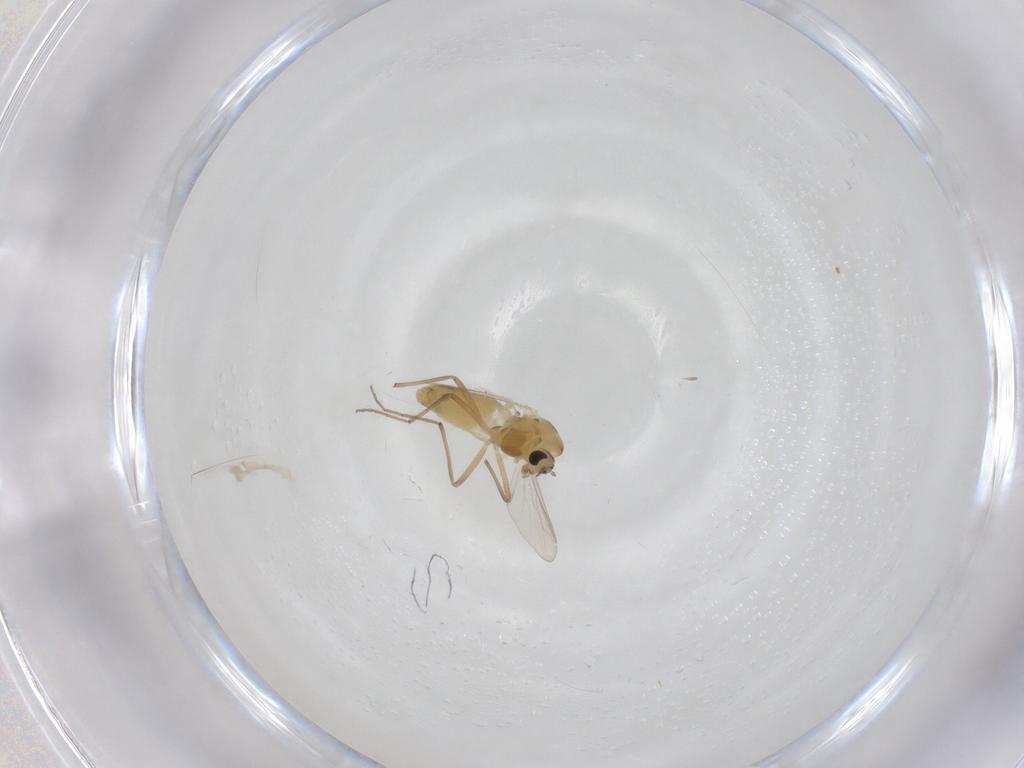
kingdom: Animalia
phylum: Arthropoda
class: Insecta
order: Diptera
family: Chironomidae
